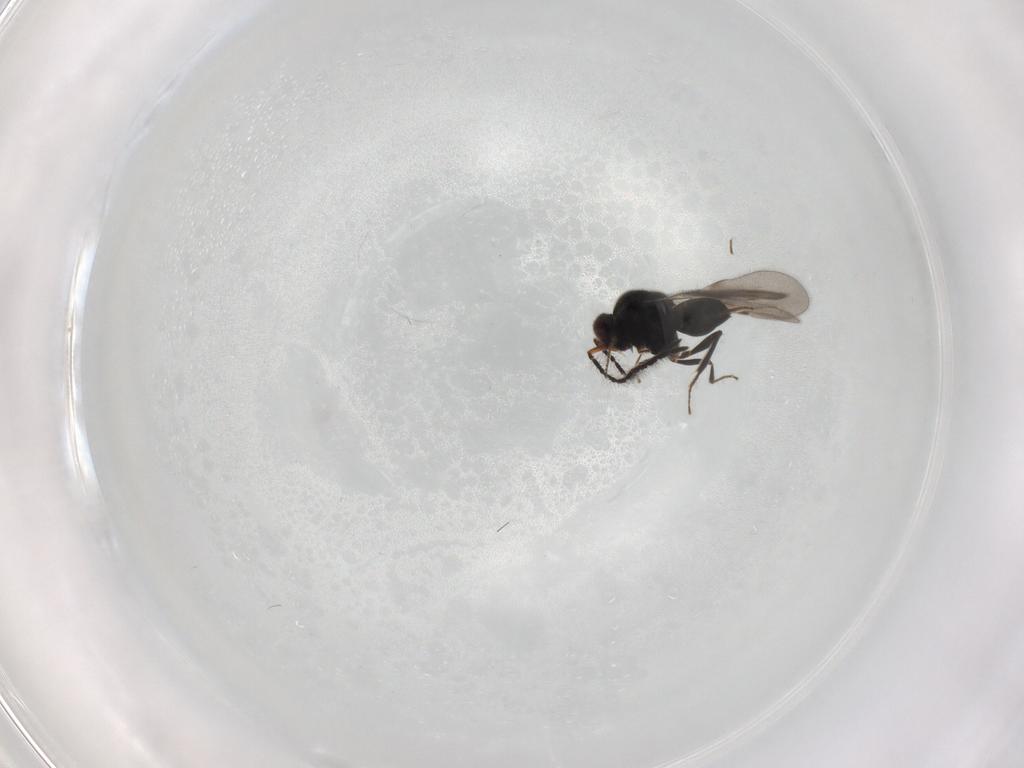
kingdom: Animalia
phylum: Arthropoda
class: Insecta
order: Hymenoptera
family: Ceraphronidae
